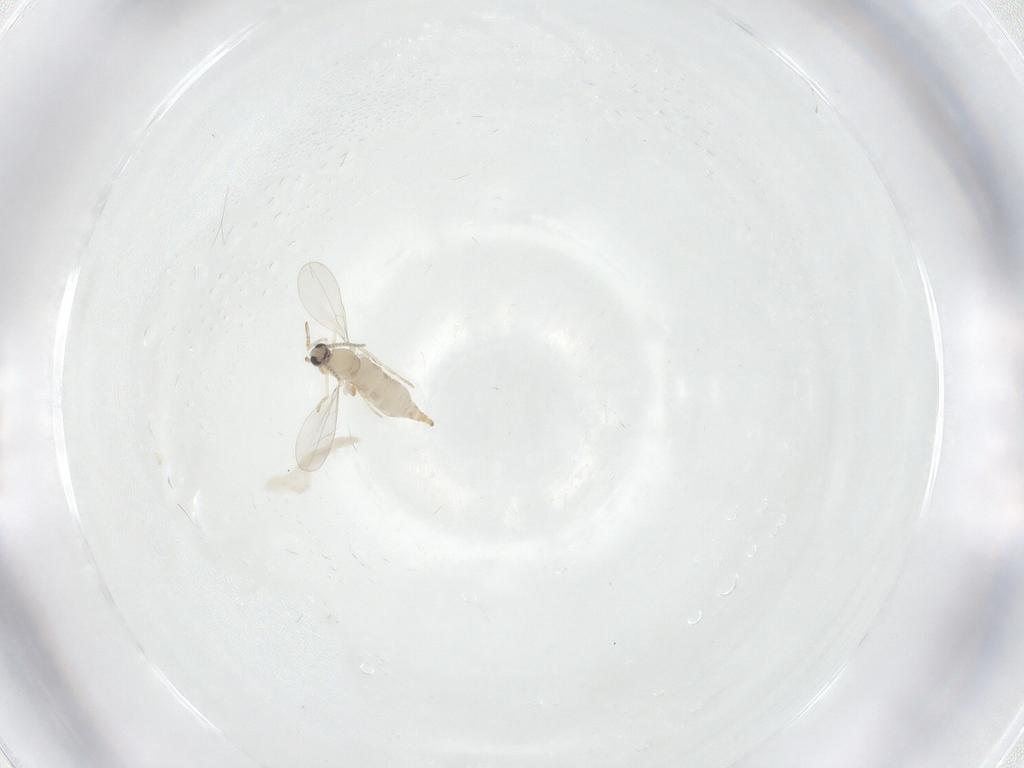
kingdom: Animalia
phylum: Arthropoda
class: Insecta
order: Diptera
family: Cecidomyiidae
